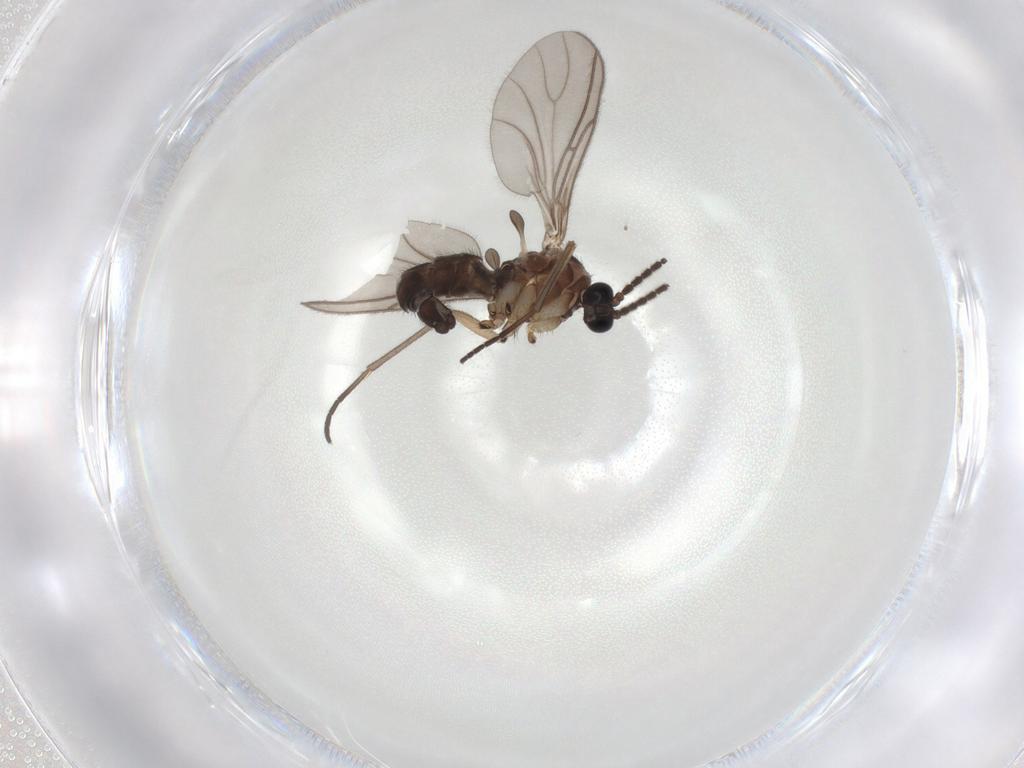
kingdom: Animalia
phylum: Arthropoda
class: Insecta
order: Diptera
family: Sciaridae
